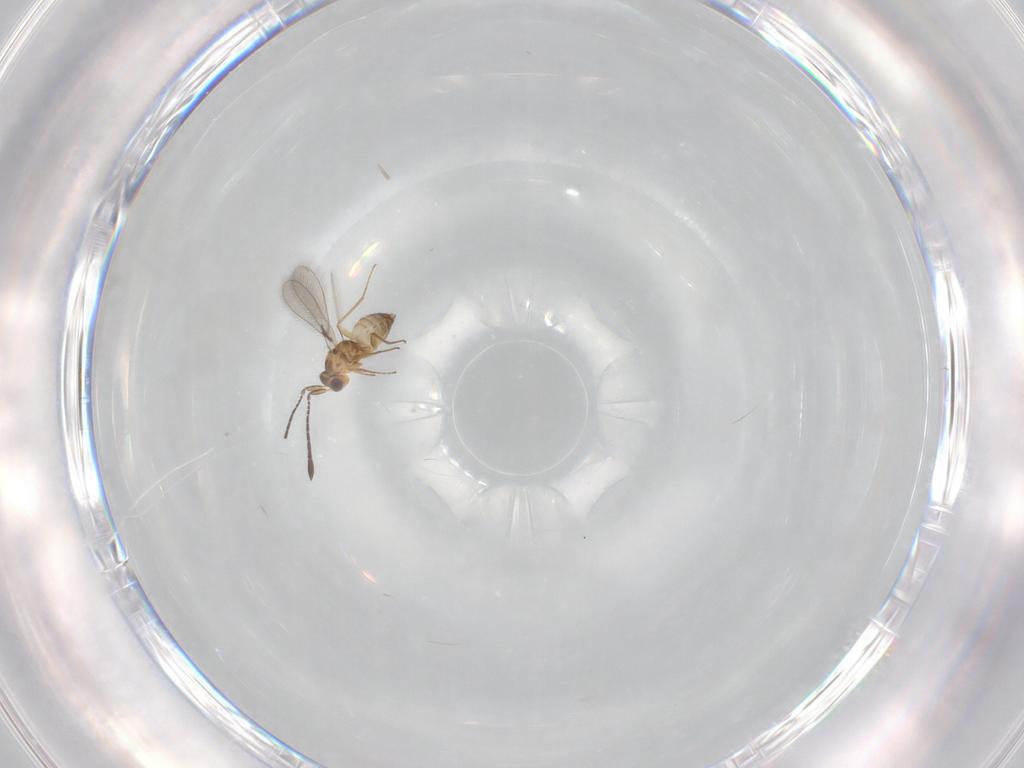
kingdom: Animalia
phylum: Arthropoda
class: Insecta
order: Hymenoptera
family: Mymaridae
